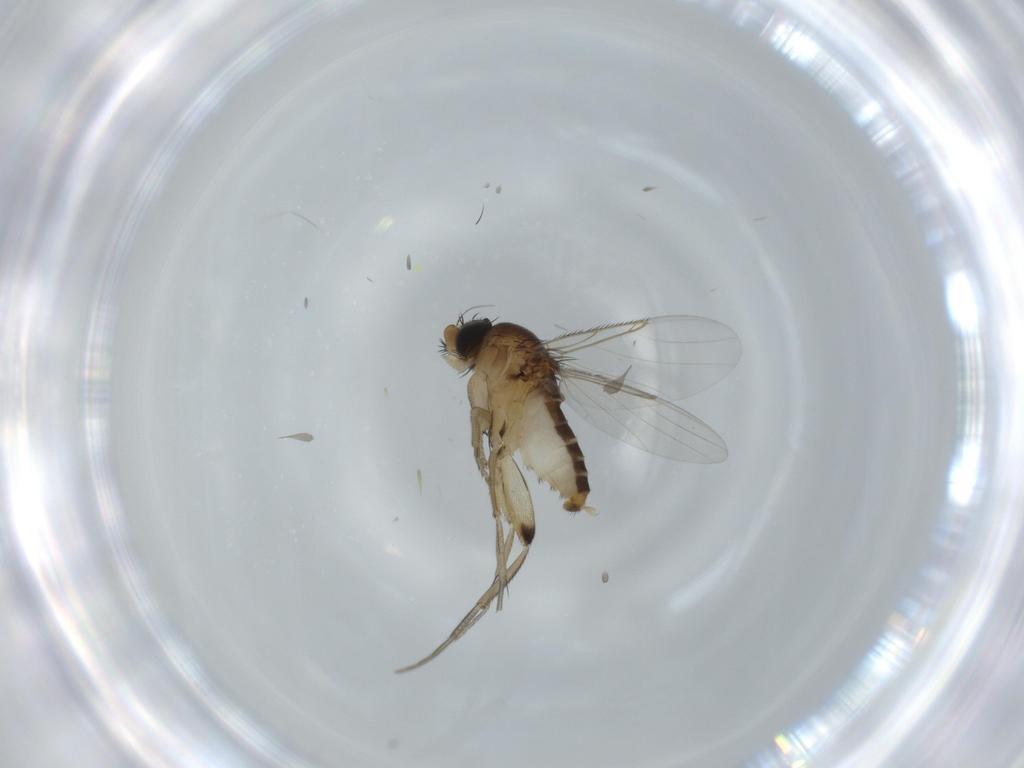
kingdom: Animalia
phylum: Arthropoda
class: Insecta
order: Diptera
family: Phoridae
